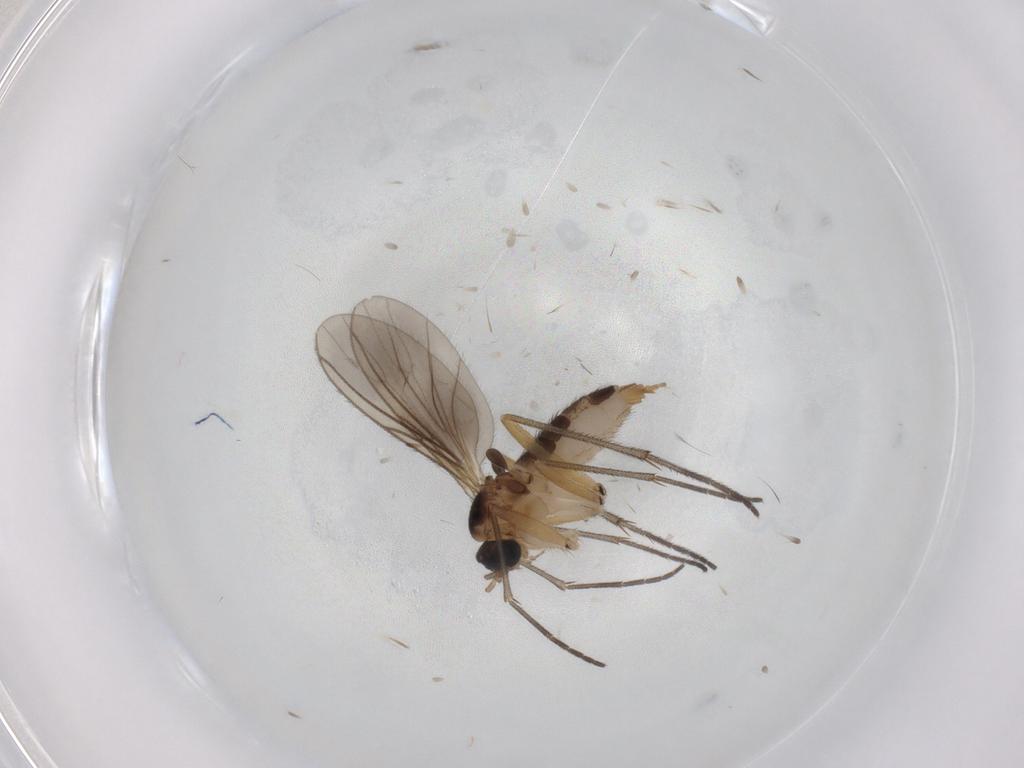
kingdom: Animalia
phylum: Arthropoda
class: Insecta
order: Diptera
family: Sciaridae
